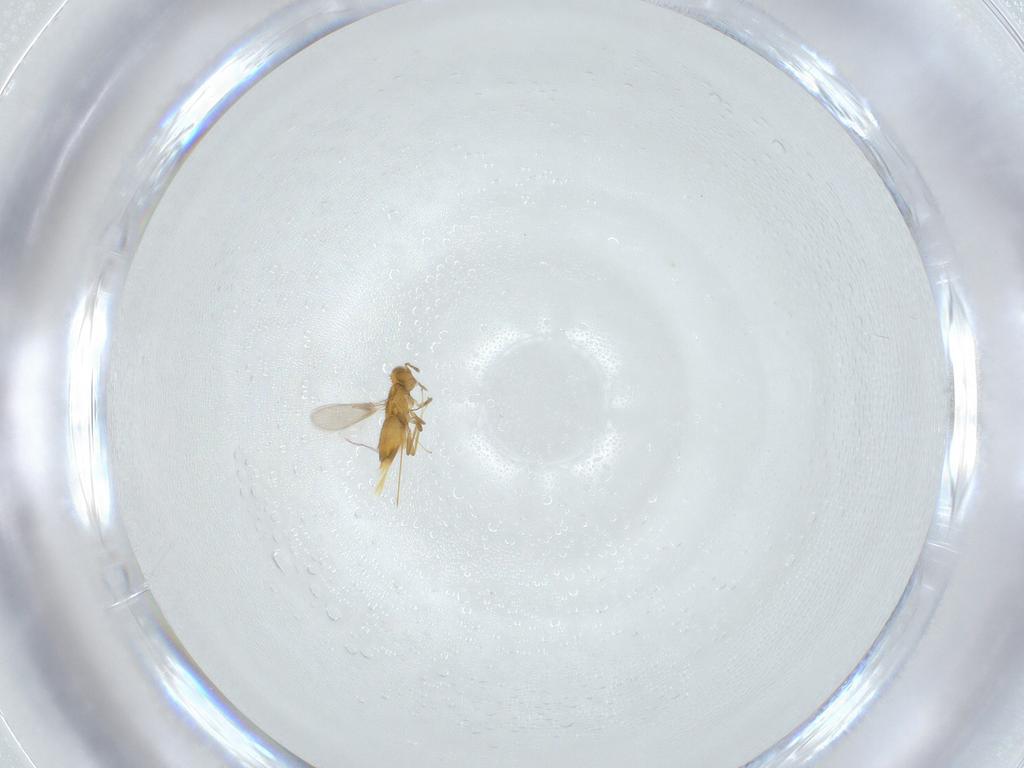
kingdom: Animalia
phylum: Arthropoda
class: Insecta
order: Hymenoptera
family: Aphelinidae
